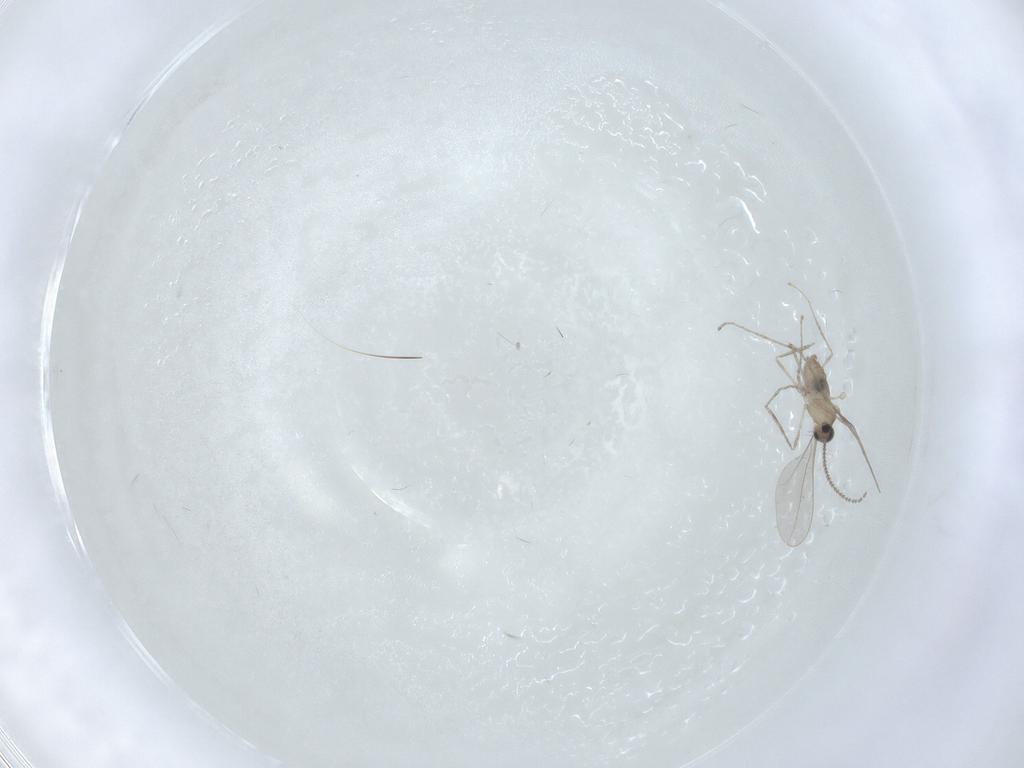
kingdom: Animalia
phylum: Arthropoda
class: Insecta
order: Diptera
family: Cecidomyiidae
